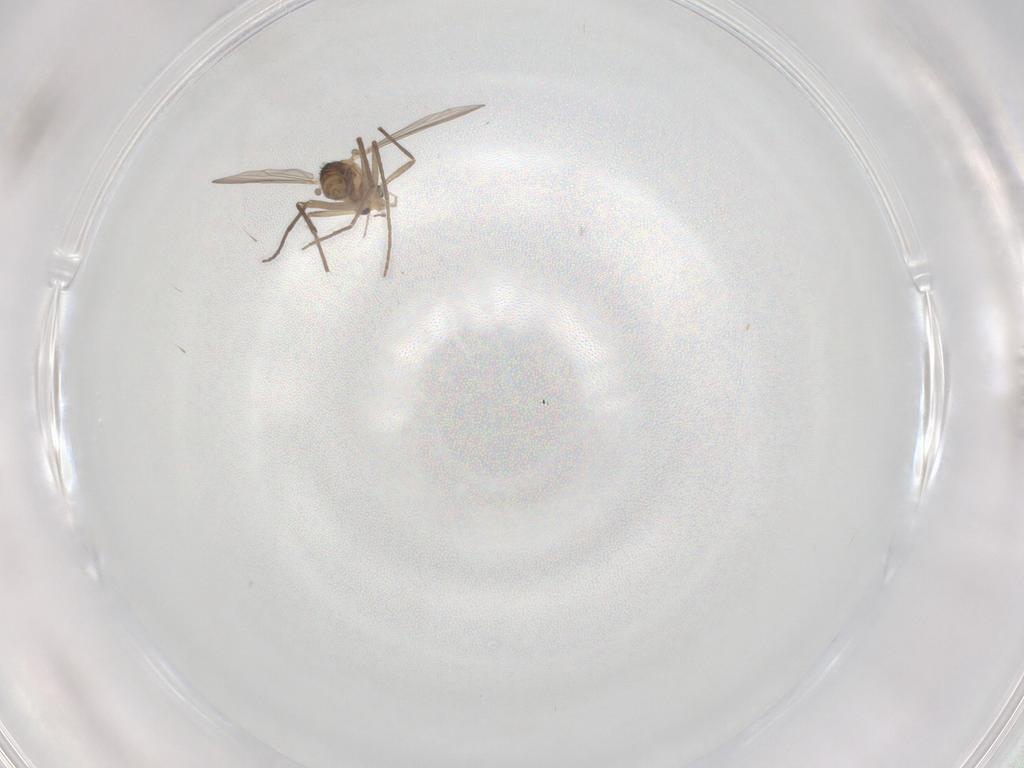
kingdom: Animalia
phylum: Arthropoda
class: Insecta
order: Diptera
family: Chironomidae
